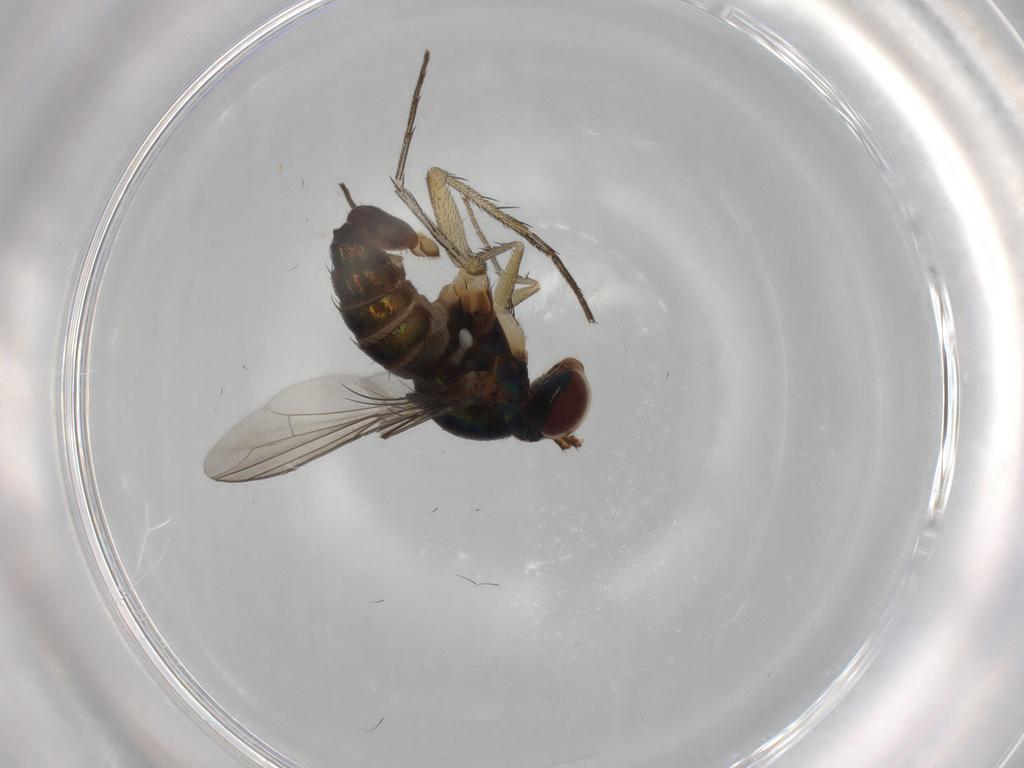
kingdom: Animalia
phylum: Arthropoda
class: Insecta
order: Diptera
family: Dolichopodidae
